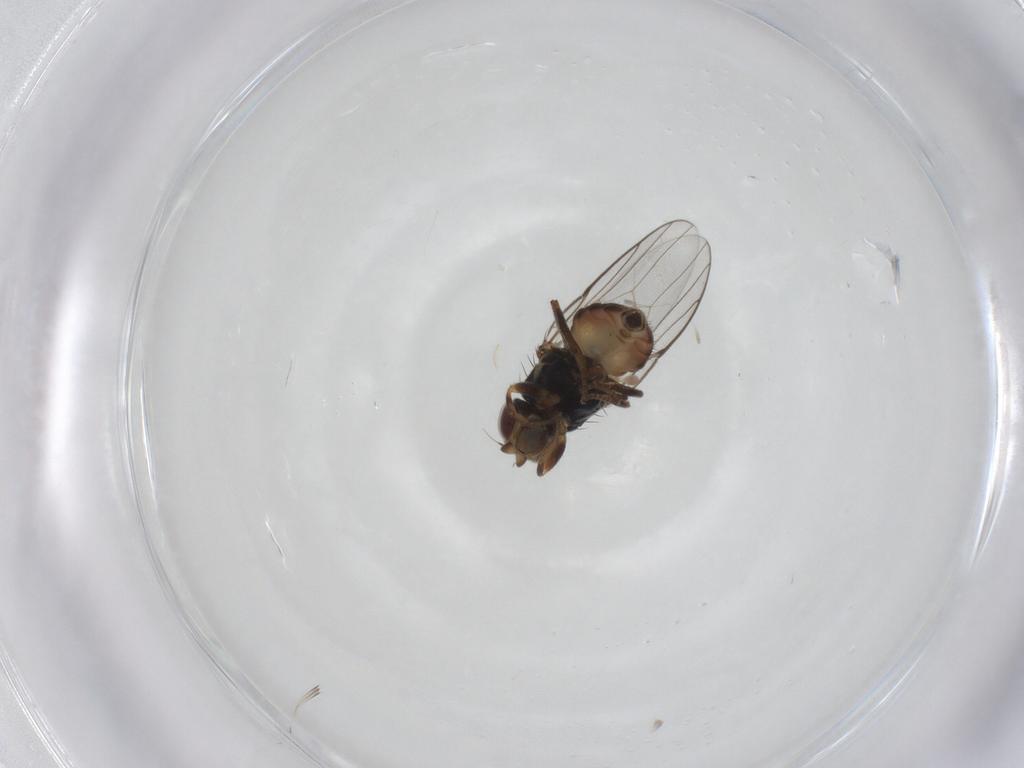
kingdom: Animalia
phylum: Arthropoda
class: Insecta
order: Diptera
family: Chloropidae
